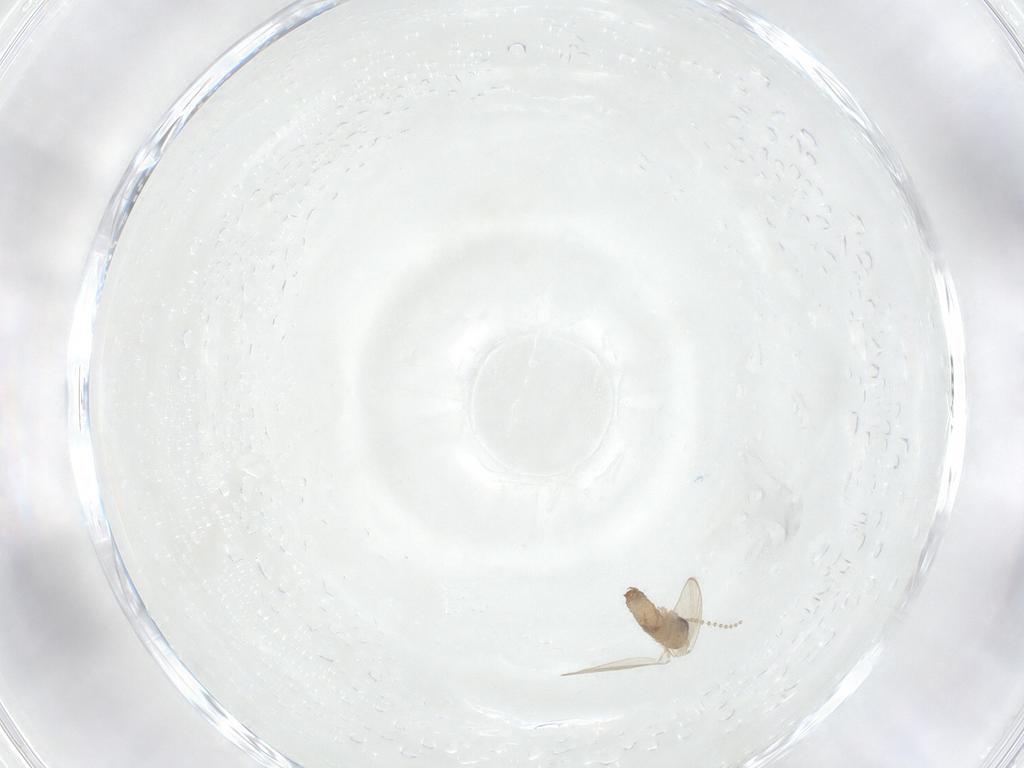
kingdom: Animalia
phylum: Arthropoda
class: Insecta
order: Diptera
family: Psychodidae
